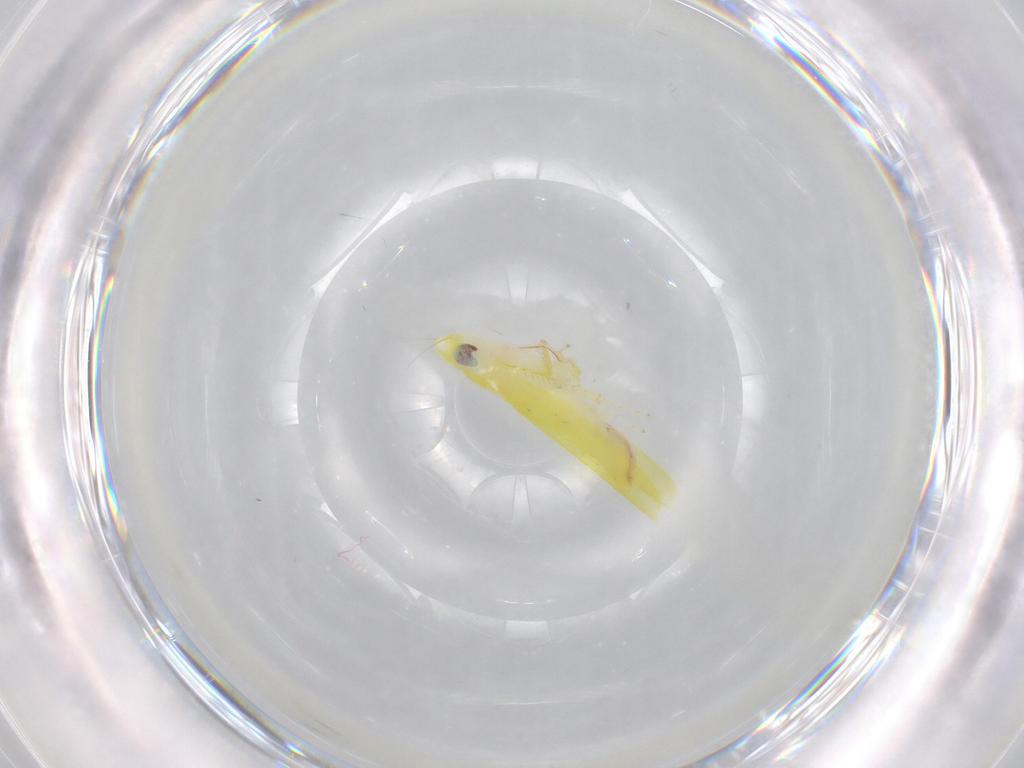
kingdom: Animalia
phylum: Arthropoda
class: Insecta
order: Hemiptera
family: Cicadellidae
